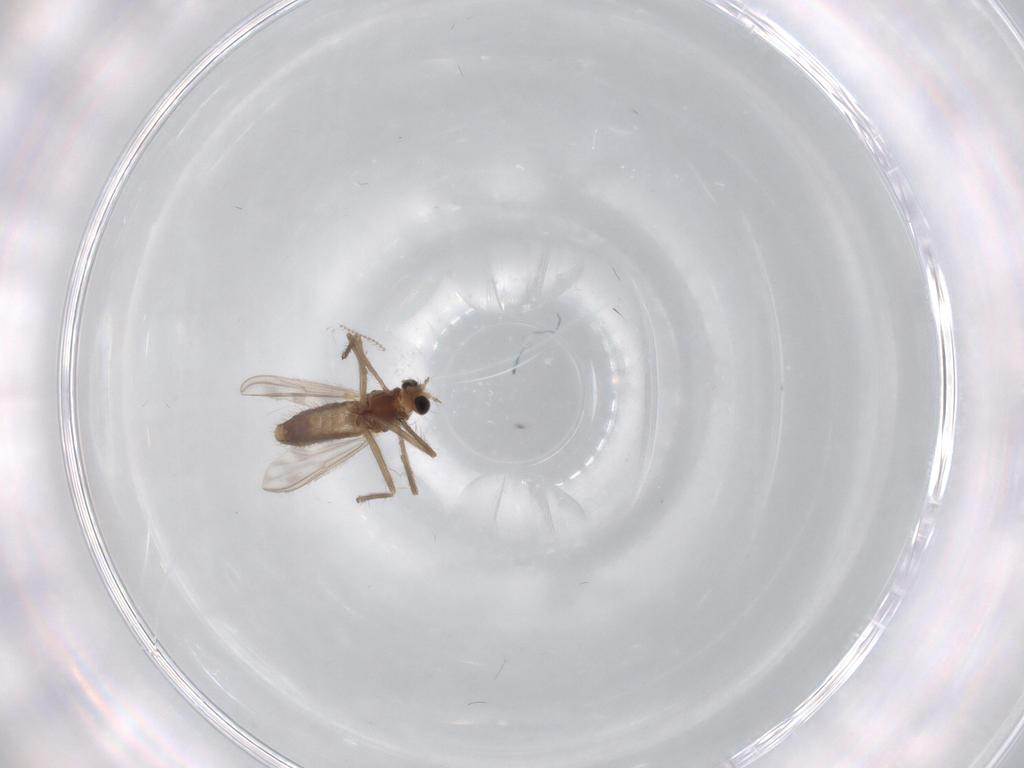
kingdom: Animalia
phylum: Arthropoda
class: Insecta
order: Diptera
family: Chironomidae
